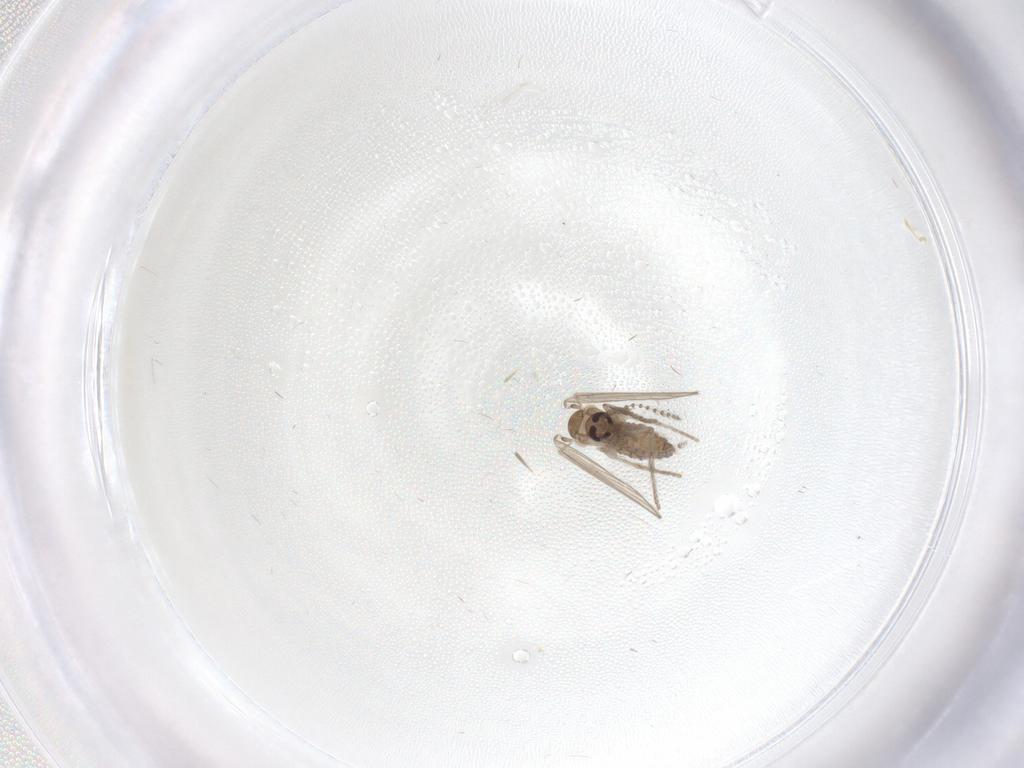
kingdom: Animalia
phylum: Arthropoda
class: Insecta
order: Diptera
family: Psychodidae
